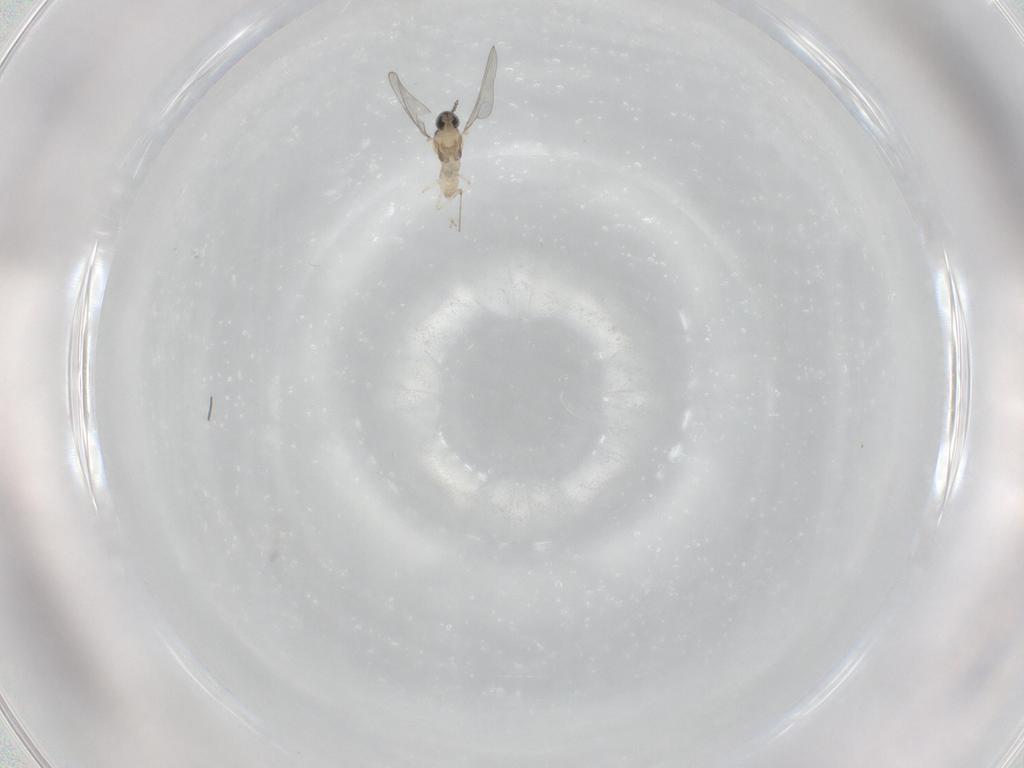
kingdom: Animalia
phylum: Arthropoda
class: Insecta
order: Diptera
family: Cecidomyiidae
